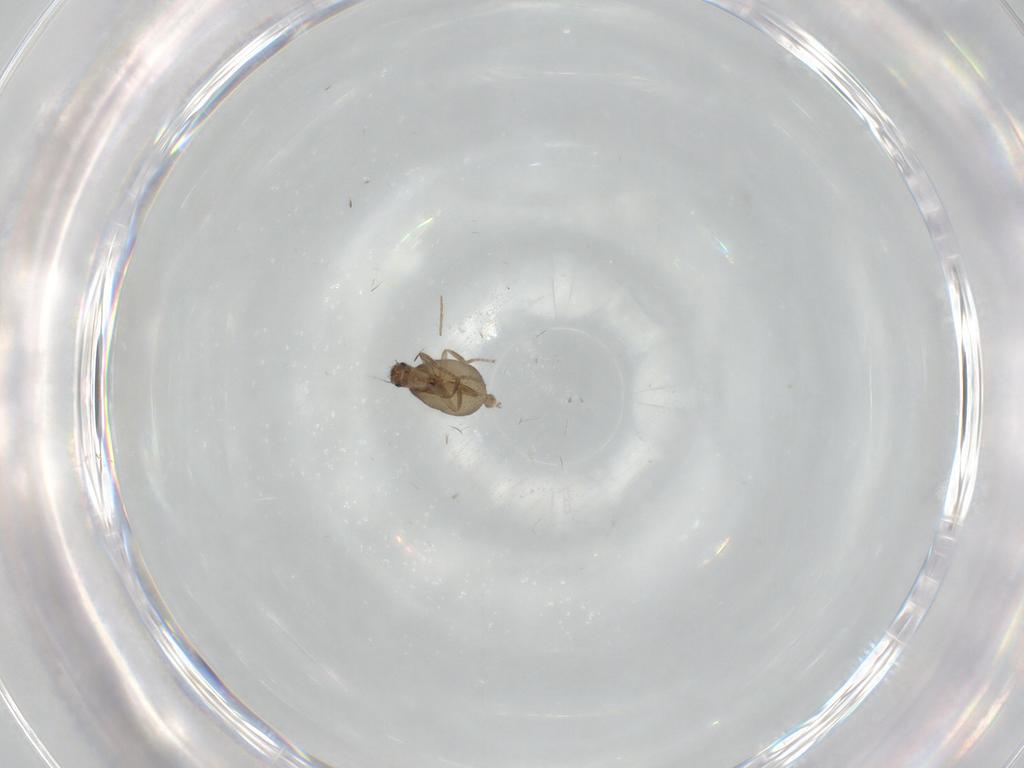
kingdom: Animalia
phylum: Arthropoda
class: Insecta
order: Diptera
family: Phoridae
